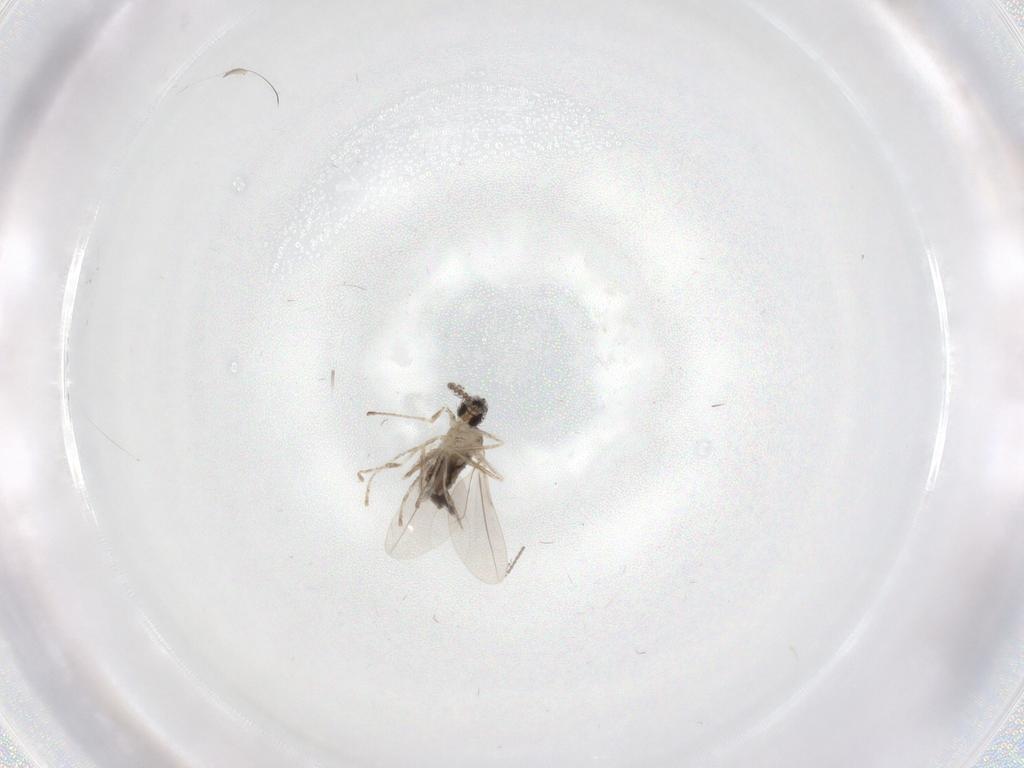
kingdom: Animalia
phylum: Arthropoda
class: Insecta
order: Diptera
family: Cecidomyiidae
